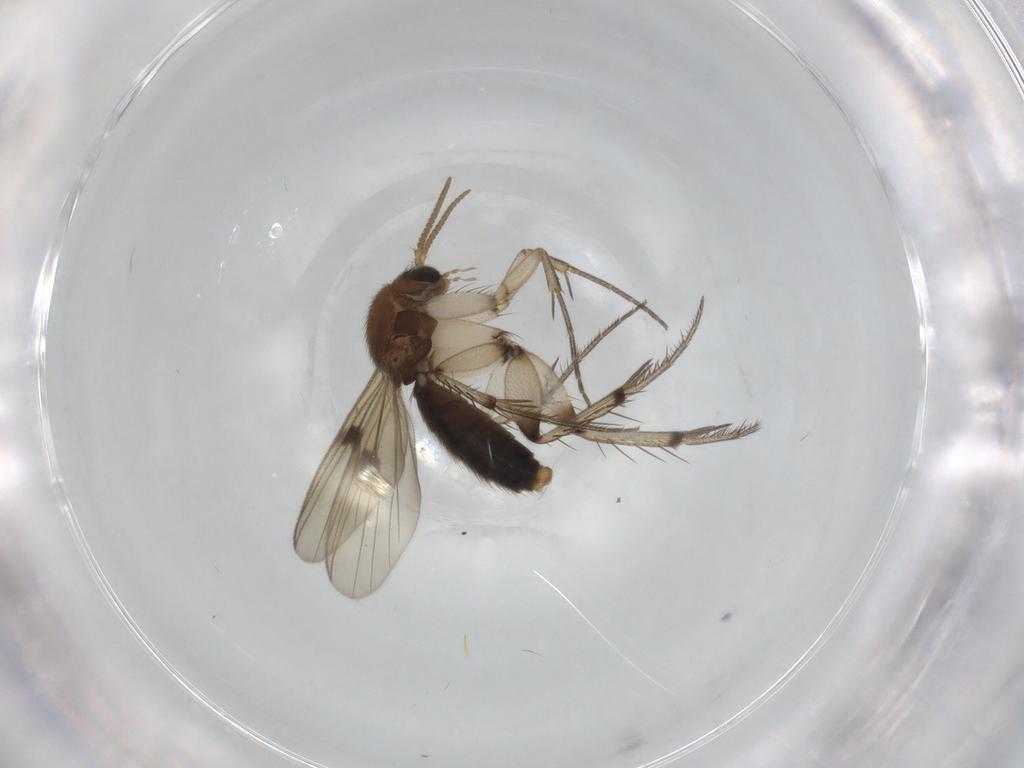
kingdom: Animalia
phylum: Arthropoda
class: Insecta
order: Diptera
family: Mycetophilidae
